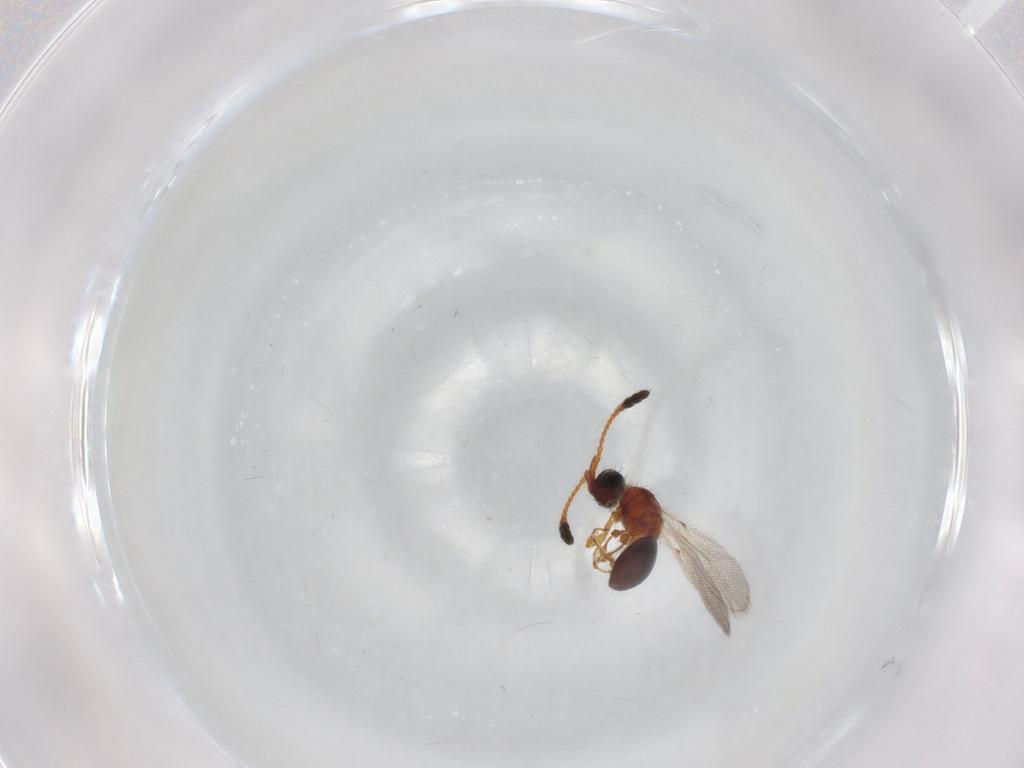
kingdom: Animalia
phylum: Arthropoda
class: Insecta
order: Hymenoptera
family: Diapriidae
